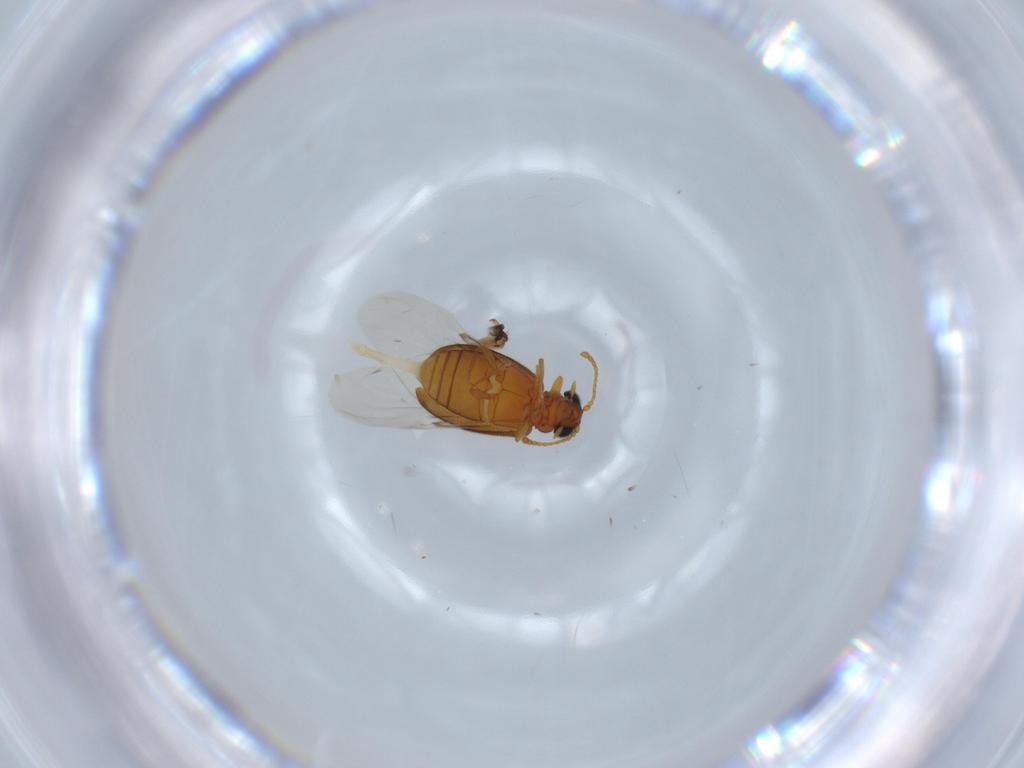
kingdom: Animalia
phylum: Arthropoda
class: Insecta
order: Coleoptera
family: Aderidae
